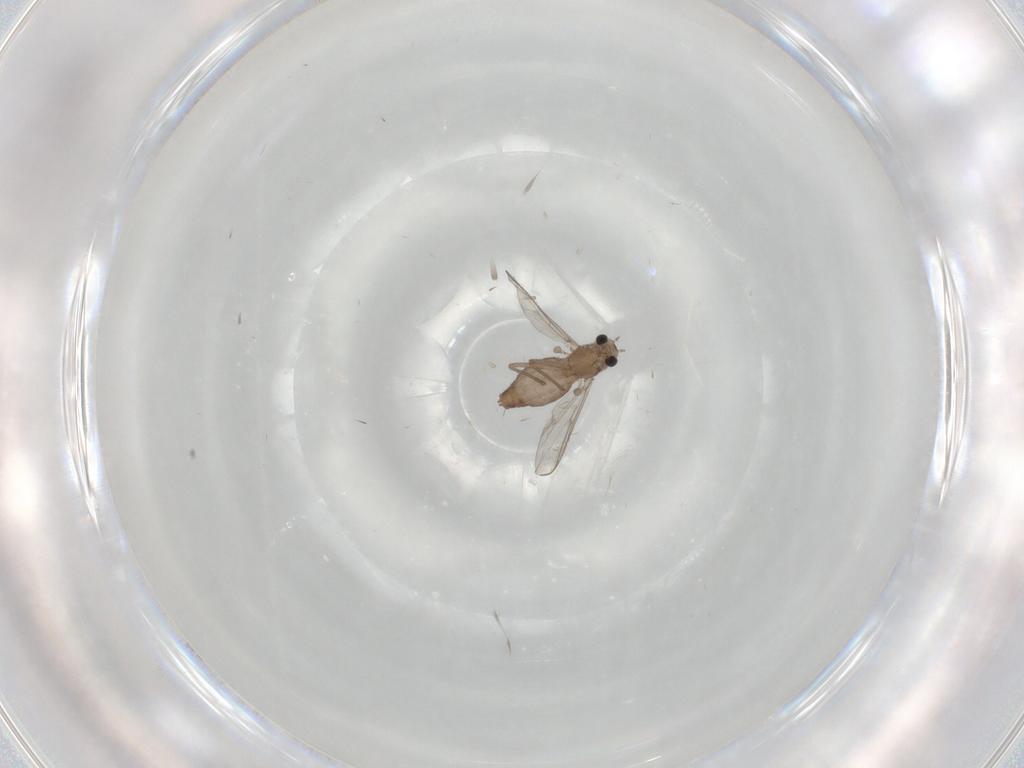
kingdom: Animalia
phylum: Arthropoda
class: Insecta
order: Diptera
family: Chironomidae
